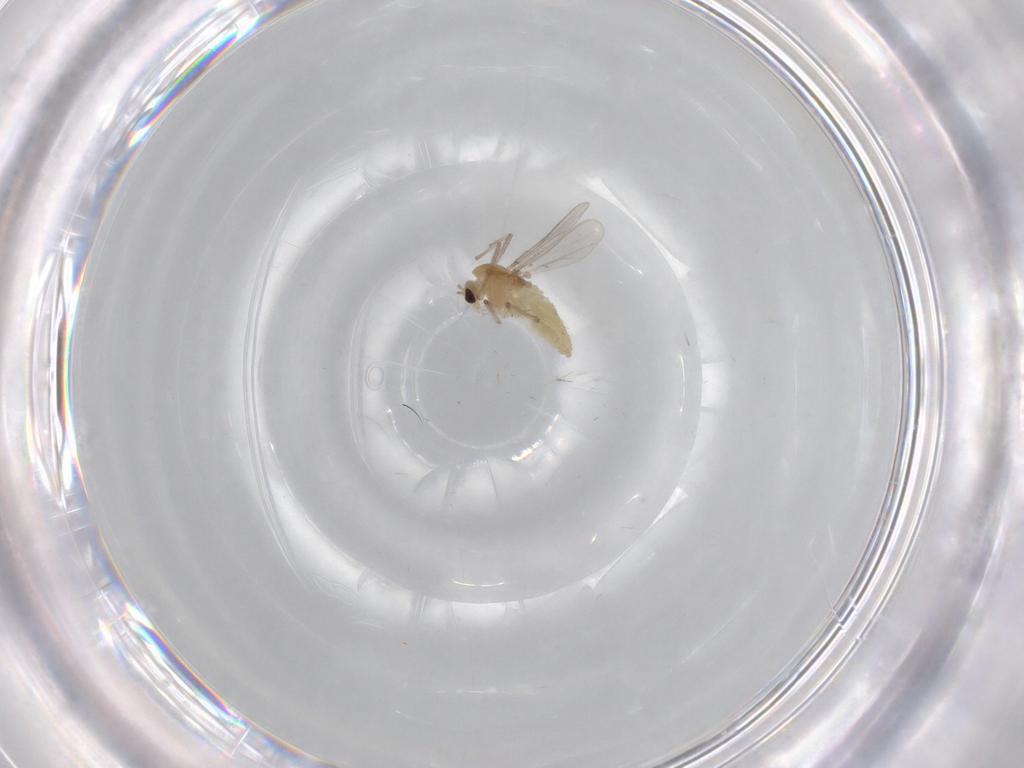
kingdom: Animalia
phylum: Arthropoda
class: Insecta
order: Diptera
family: Chironomidae
